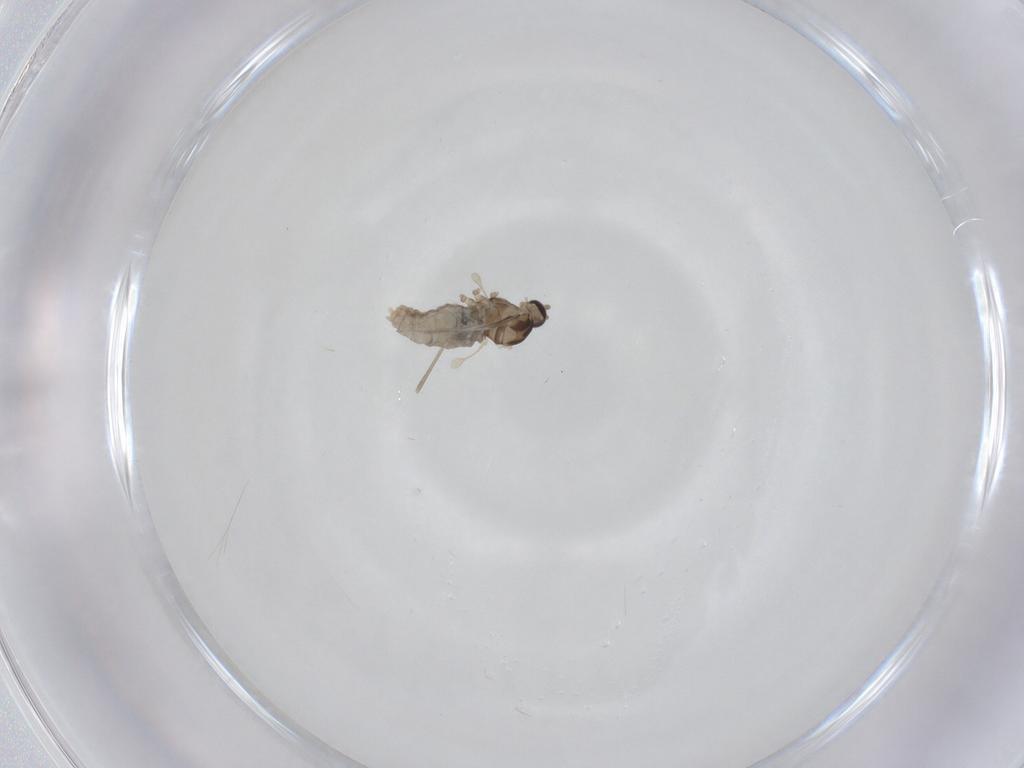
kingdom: Animalia
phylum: Arthropoda
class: Insecta
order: Diptera
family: Cecidomyiidae
